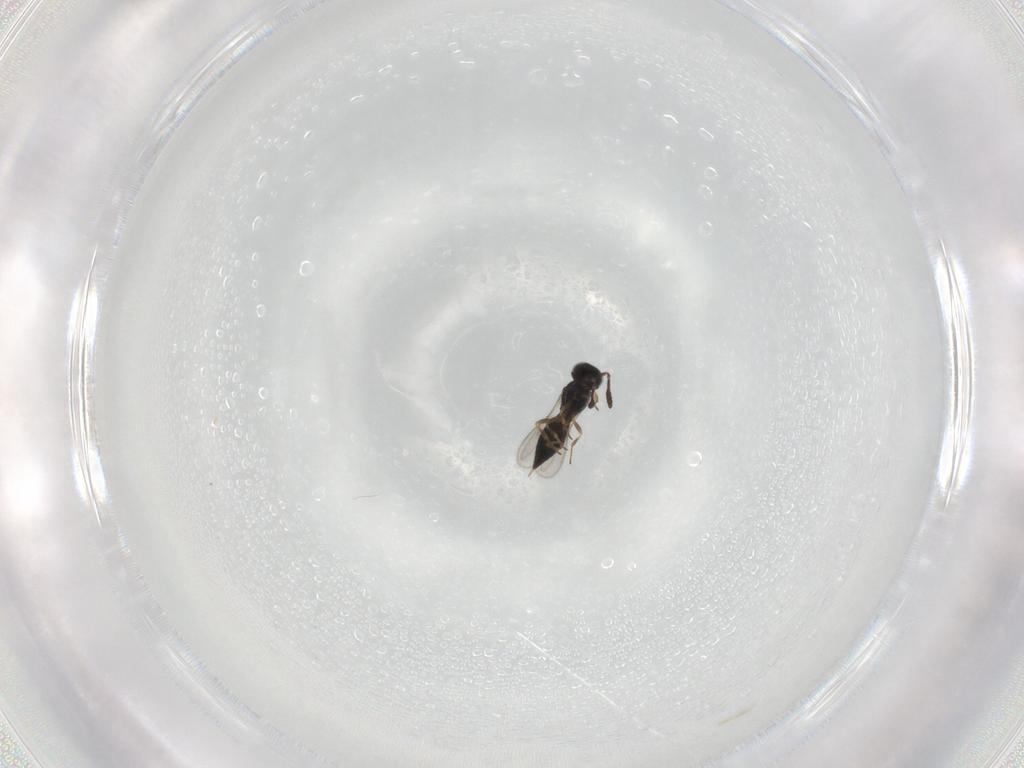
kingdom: Animalia
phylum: Arthropoda
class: Insecta
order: Hymenoptera
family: Scelionidae
